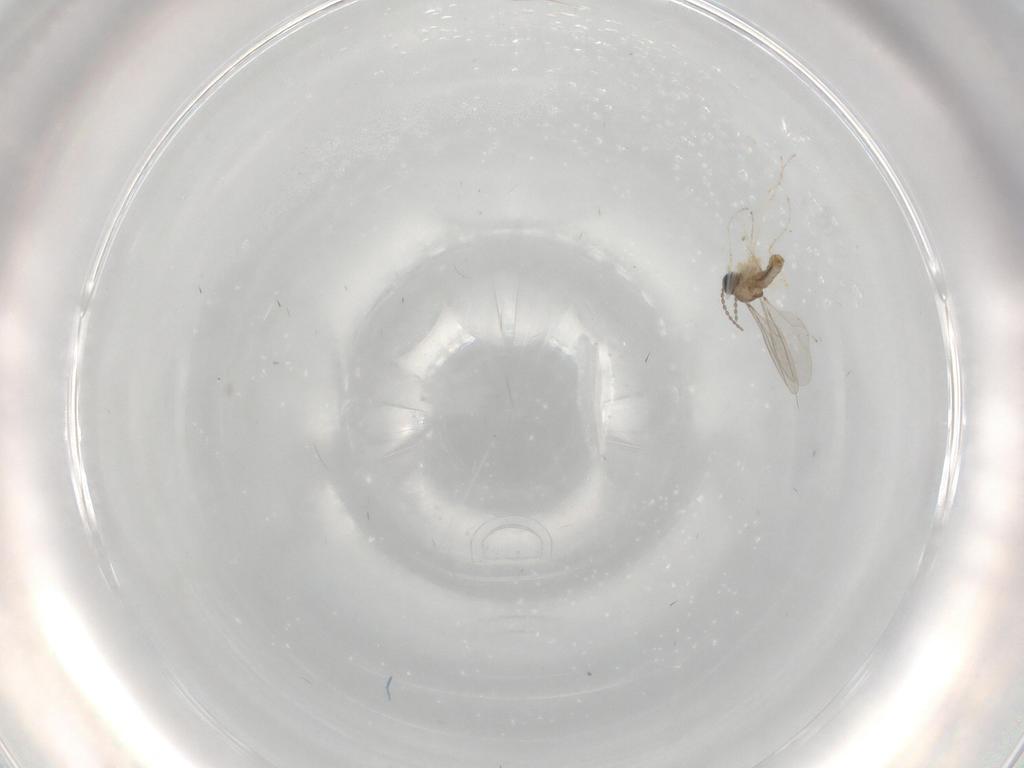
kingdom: Animalia
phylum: Arthropoda
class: Insecta
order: Diptera
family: Cecidomyiidae
